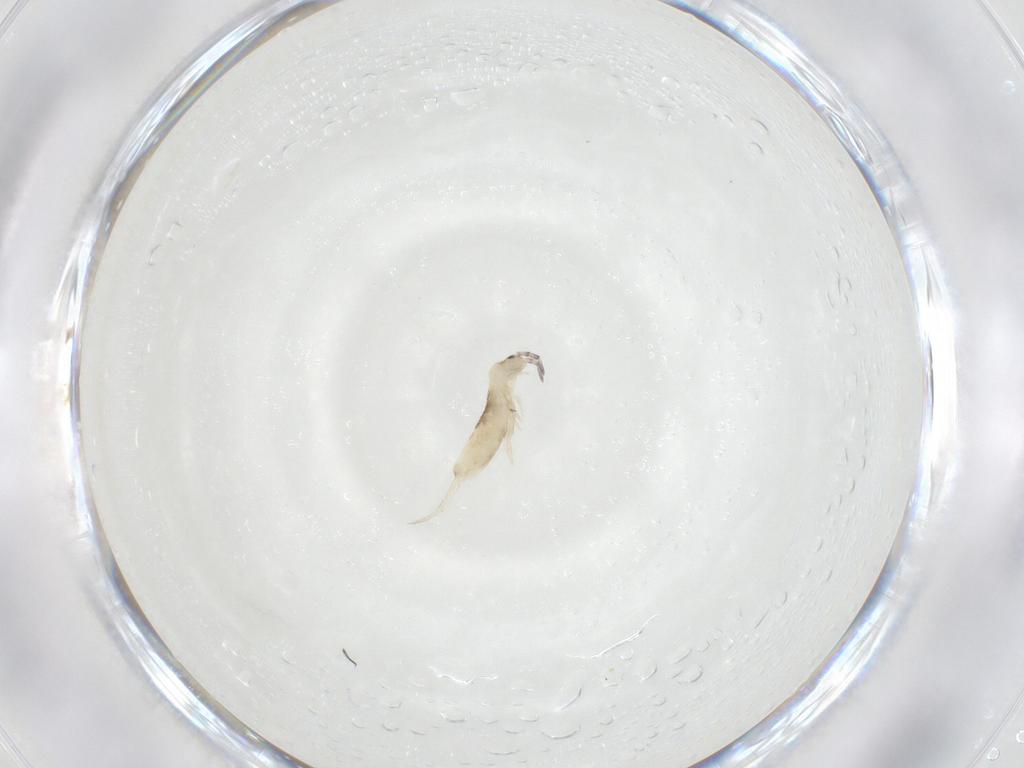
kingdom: Animalia
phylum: Arthropoda
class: Collembola
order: Entomobryomorpha
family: Entomobryidae
